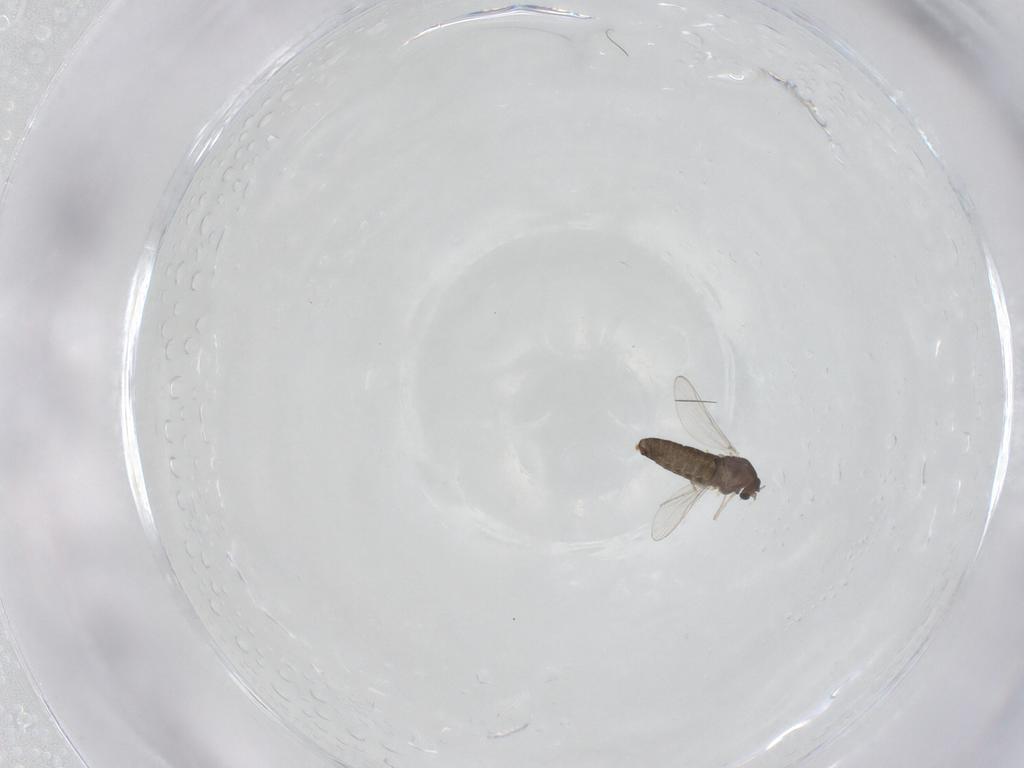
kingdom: Animalia
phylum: Arthropoda
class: Insecta
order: Diptera
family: Chironomidae
